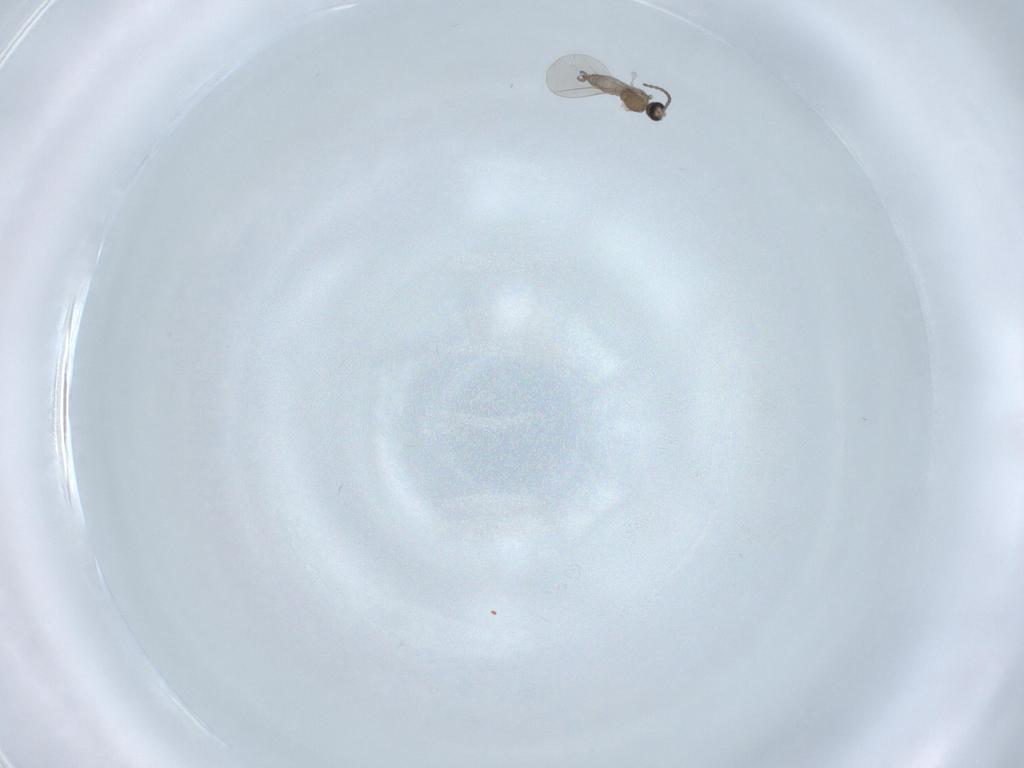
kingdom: Animalia
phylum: Arthropoda
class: Insecta
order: Diptera
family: Cecidomyiidae
